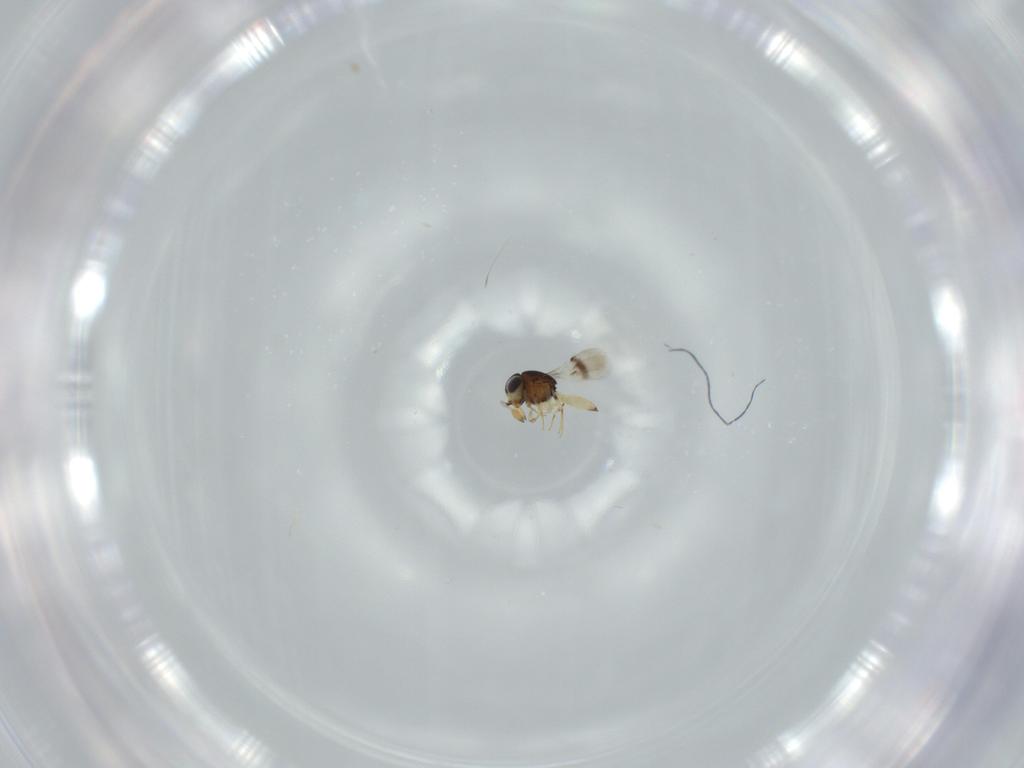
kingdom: Animalia
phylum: Arthropoda
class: Insecta
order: Hymenoptera
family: Scelionidae
